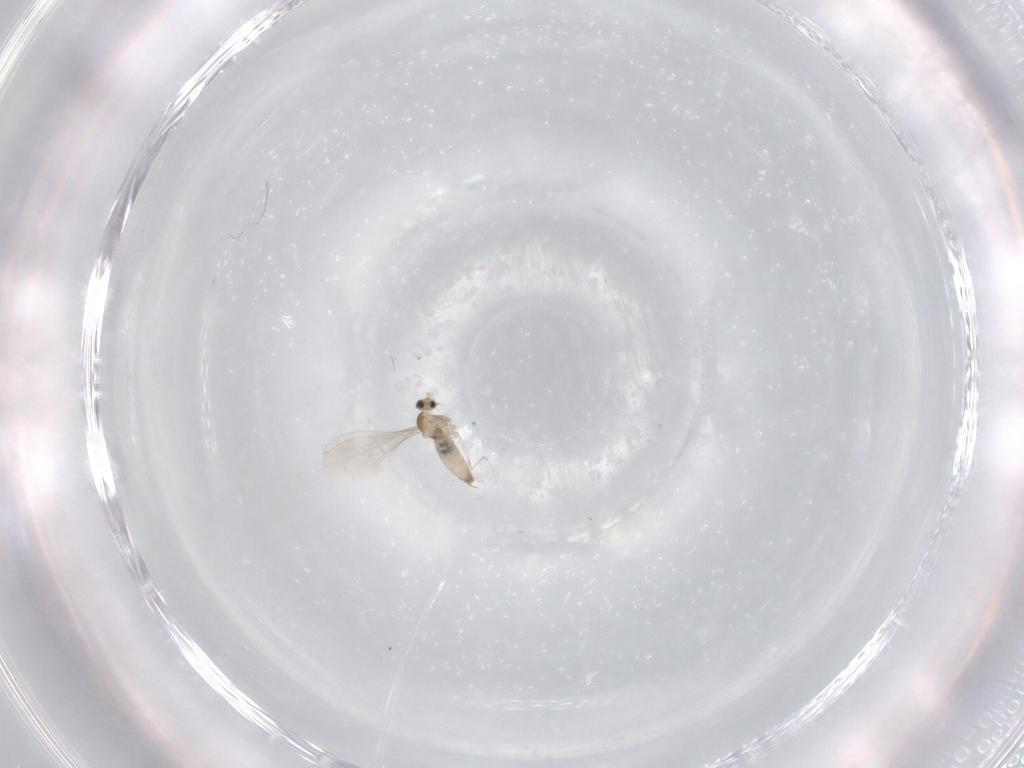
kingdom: Animalia
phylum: Arthropoda
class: Insecta
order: Diptera
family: Cecidomyiidae
